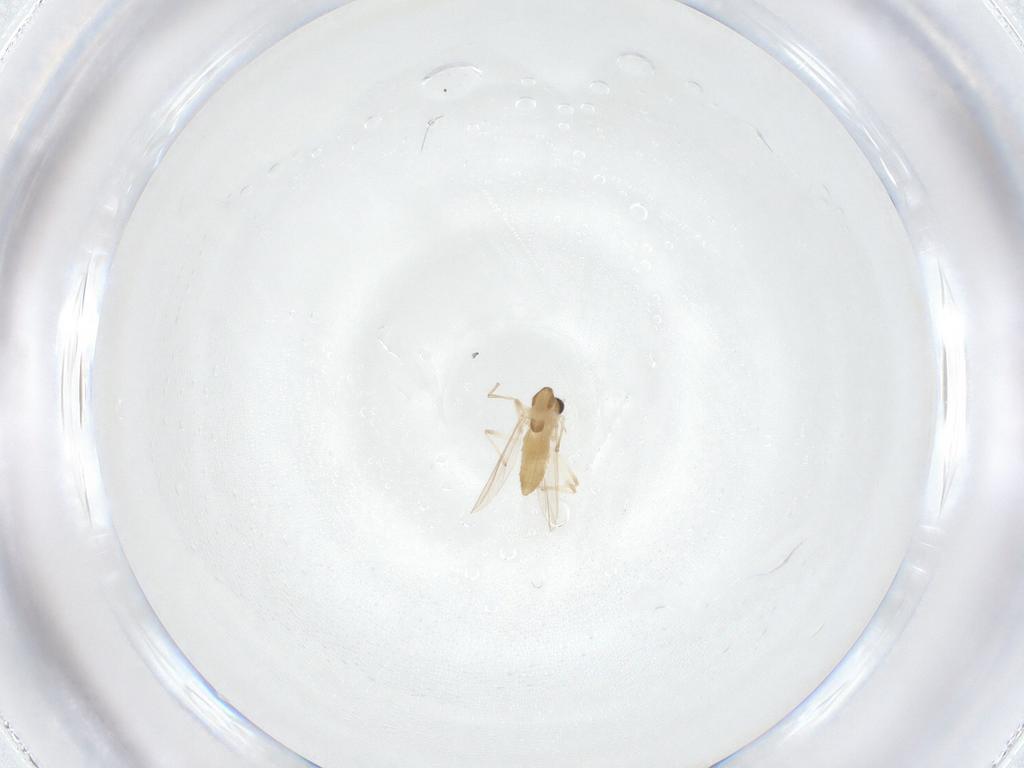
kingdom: Animalia
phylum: Arthropoda
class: Insecta
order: Diptera
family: Chironomidae
